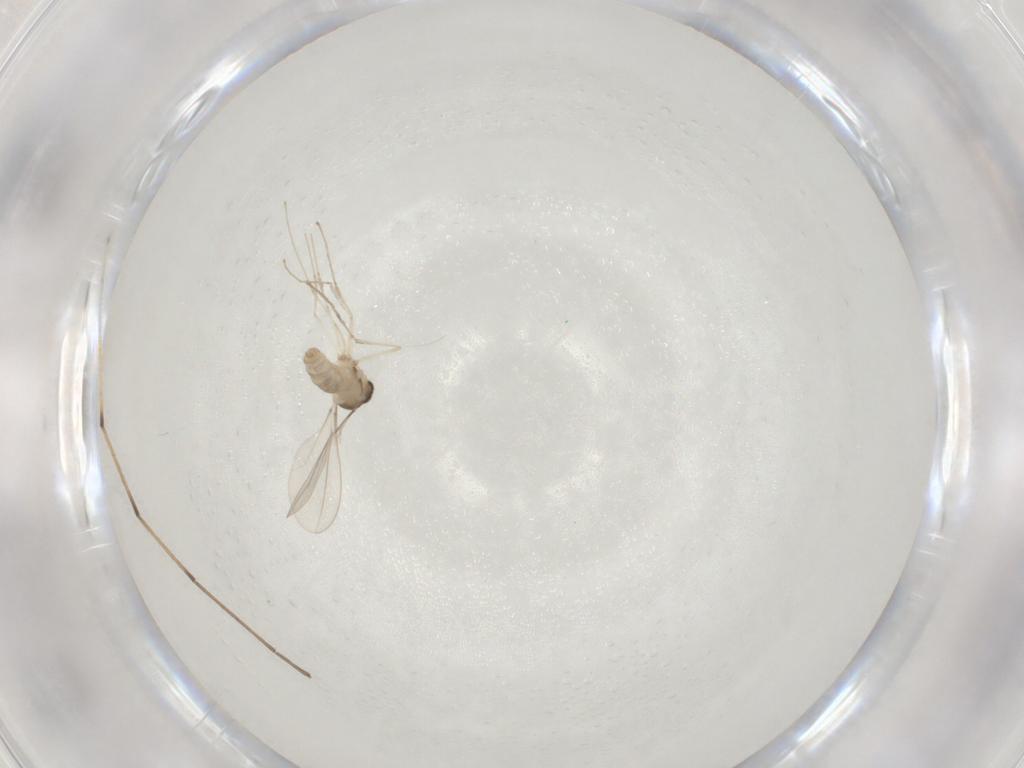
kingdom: Animalia
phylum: Arthropoda
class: Insecta
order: Diptera
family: Chironomidae
